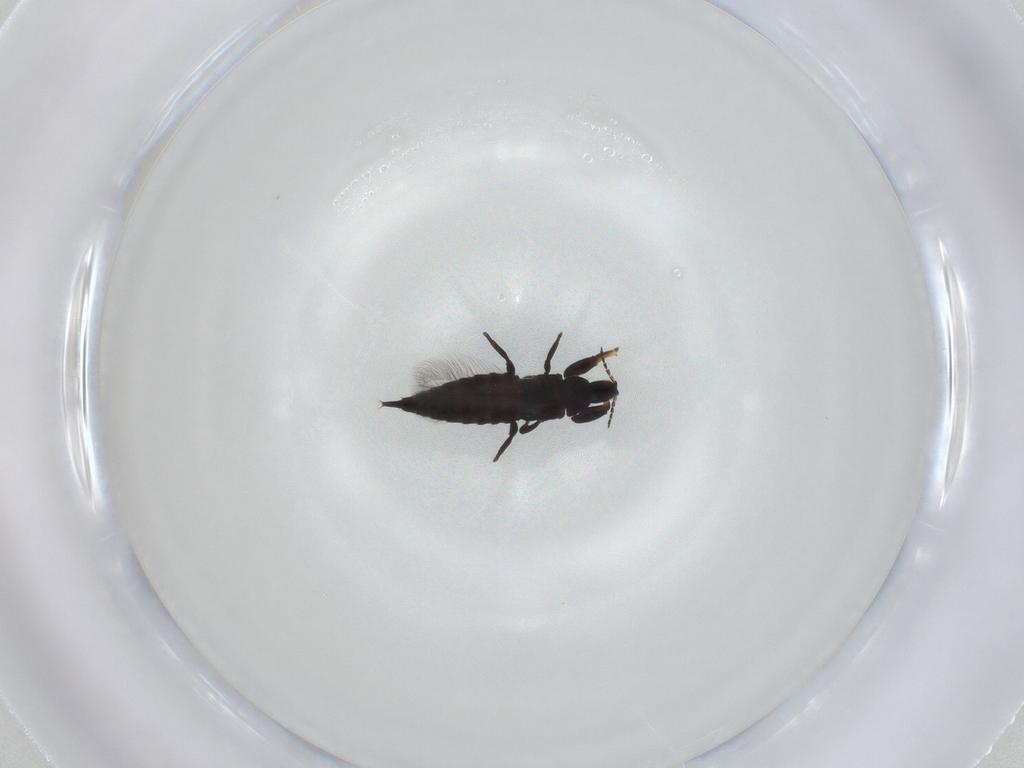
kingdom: Animalia
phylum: Arthropoda
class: Insecta
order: Thysanoptera
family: Phlaeothripidae
